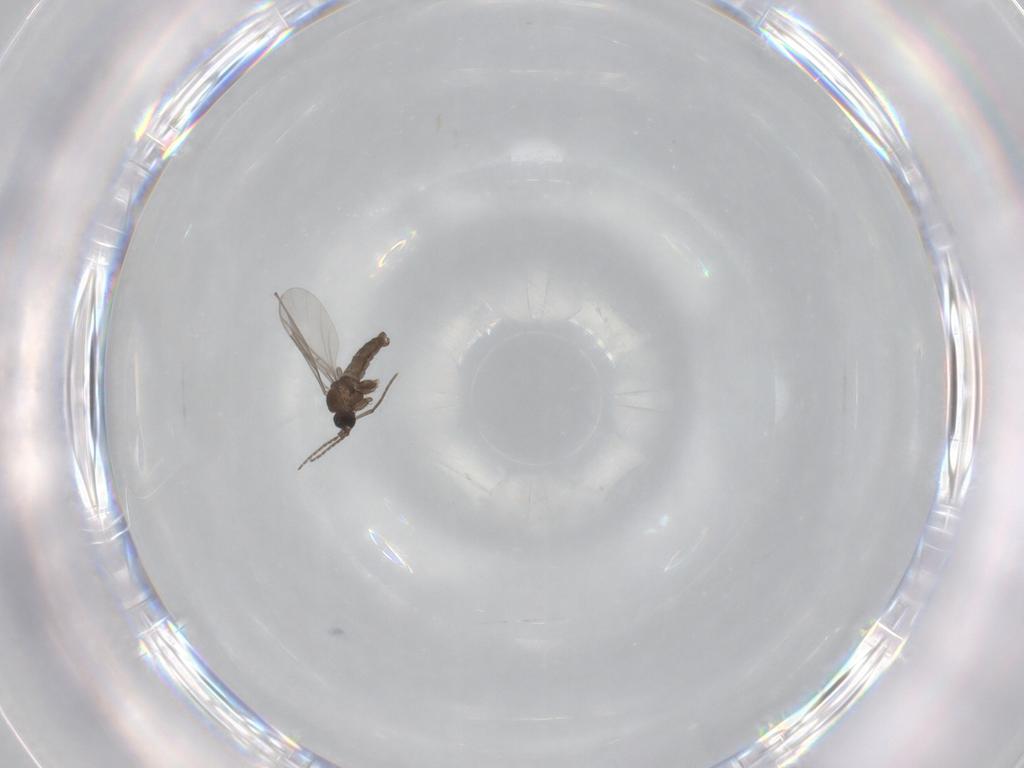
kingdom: Animalia
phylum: Arthropoda
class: Insecta
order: Diptera
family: Sciaridae
